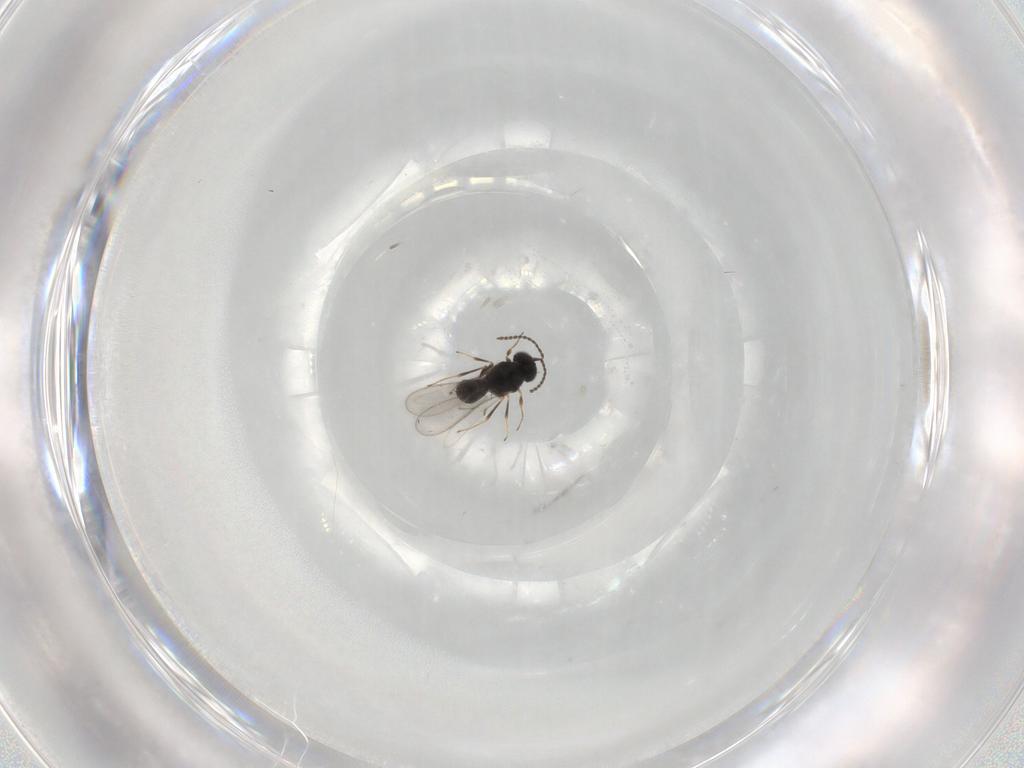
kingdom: Animalia
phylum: Arthropoda
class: Insecta
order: Hymenoptera
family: Scelionidae
